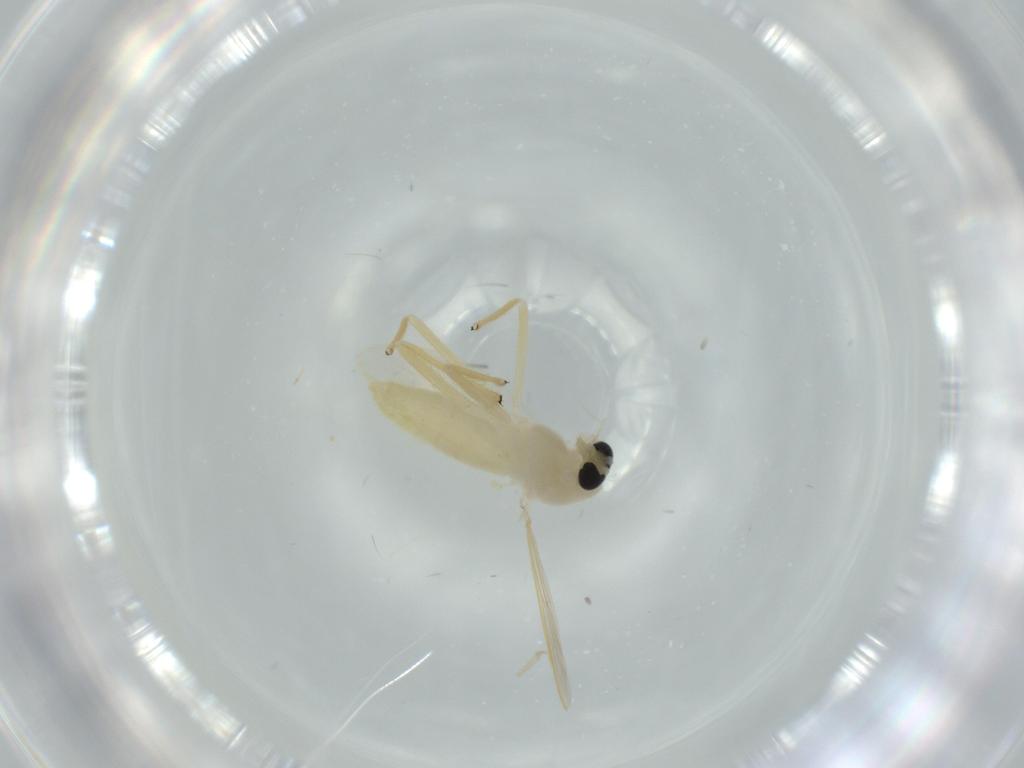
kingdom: Animalia
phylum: Arthropoda
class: Insecta
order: Diptera
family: Chironomidae
